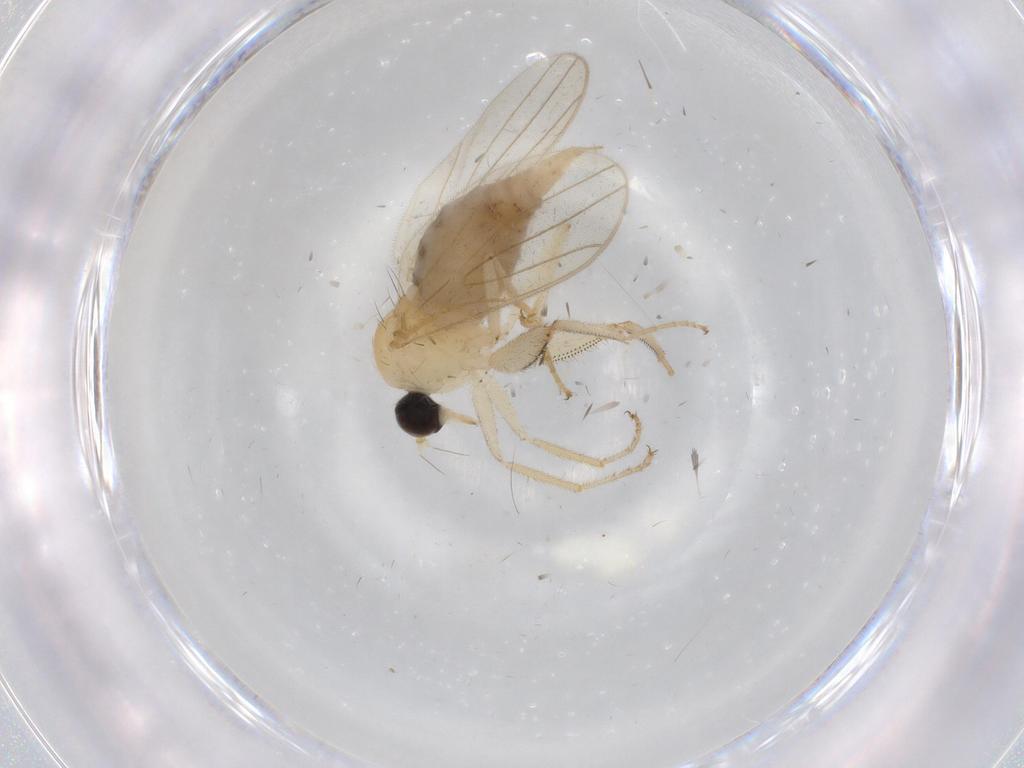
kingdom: Animalia
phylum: Arthropoda
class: Insecta
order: Diptera
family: Hybotidae
